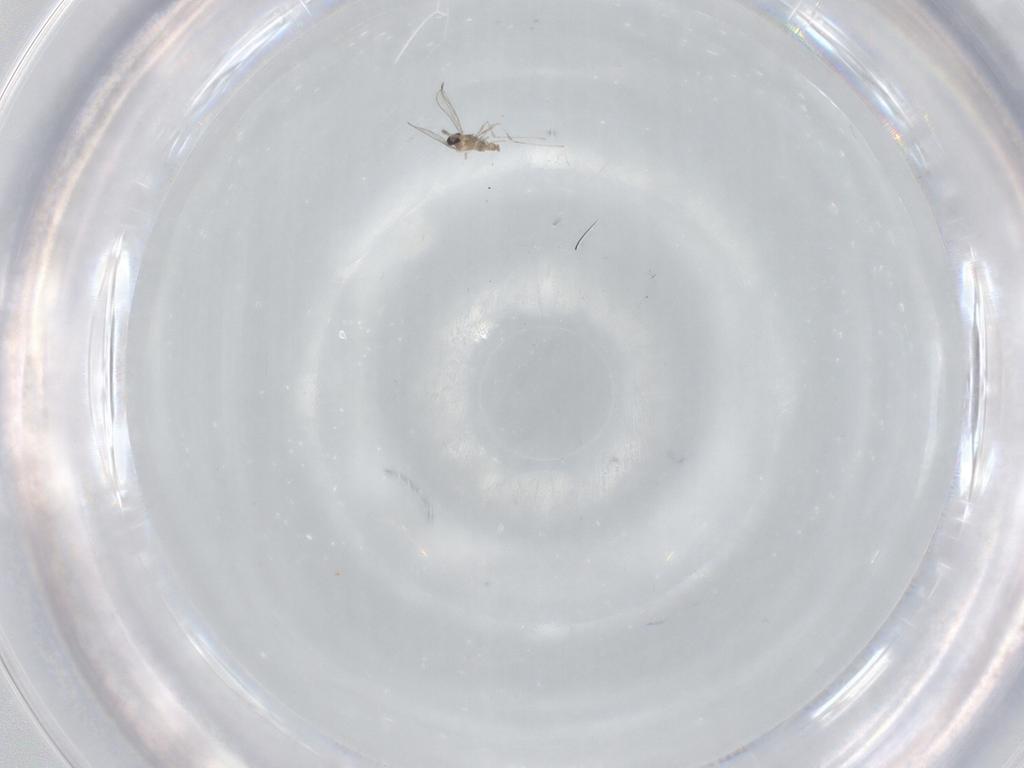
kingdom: Animalia
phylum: Arthropoda
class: Insecta
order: Diptera
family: Cecidomyiidae
